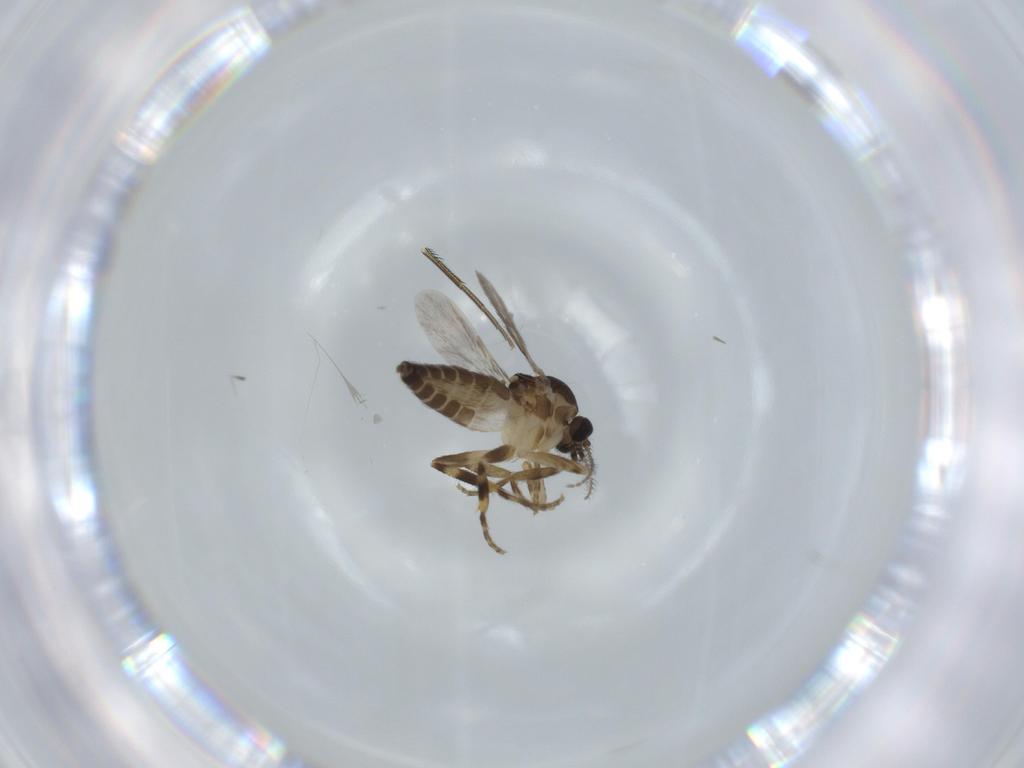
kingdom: Animalia
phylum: Arthropoda
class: Insecta
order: Diptera
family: Ceratopogonidae
